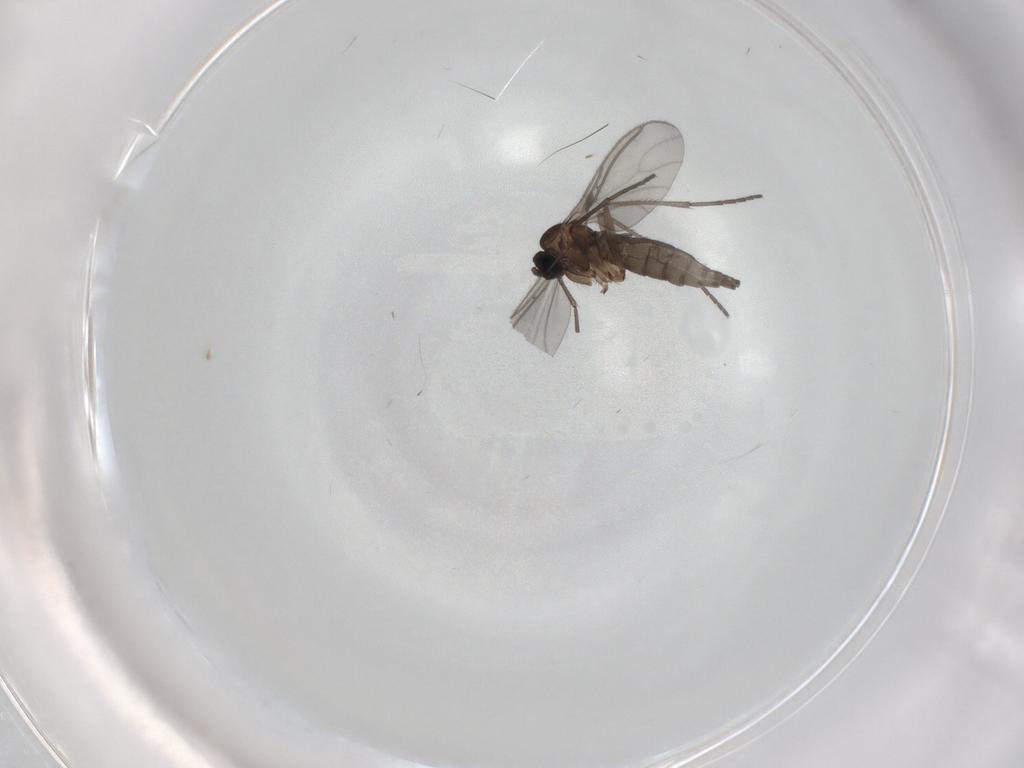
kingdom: Animalia
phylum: Arthropoda
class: Insecta
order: Diptera
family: Sciaridae
